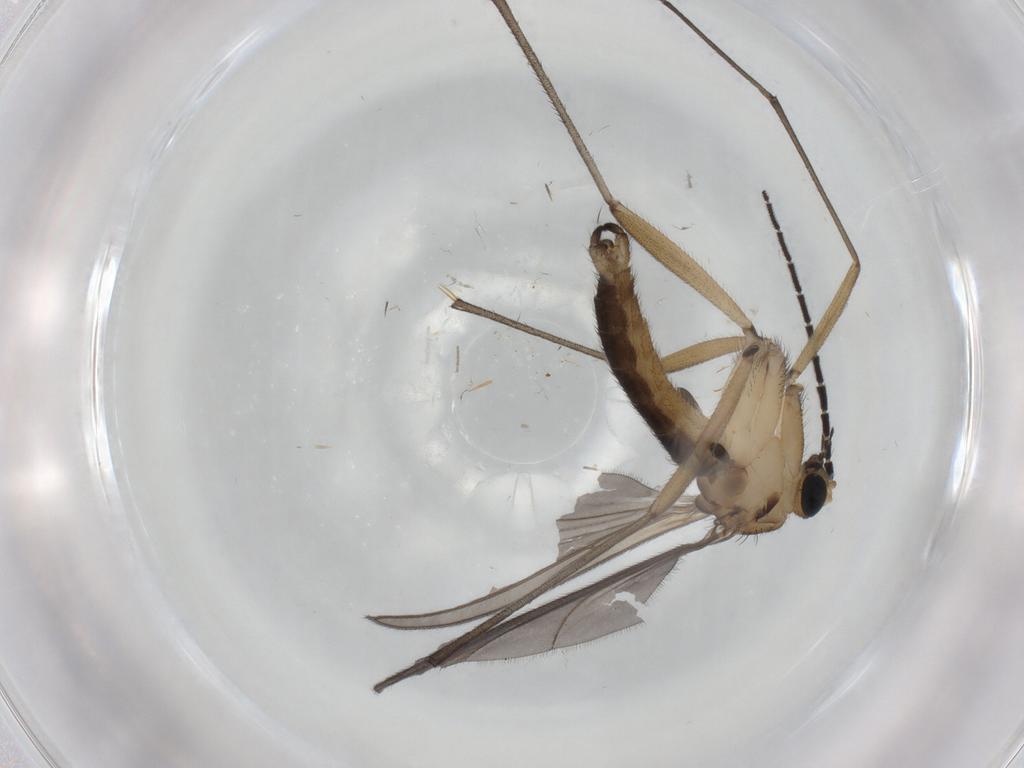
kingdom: Animalia
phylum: Arthropoda
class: Insecta
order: Diptera
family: Sciaridae
